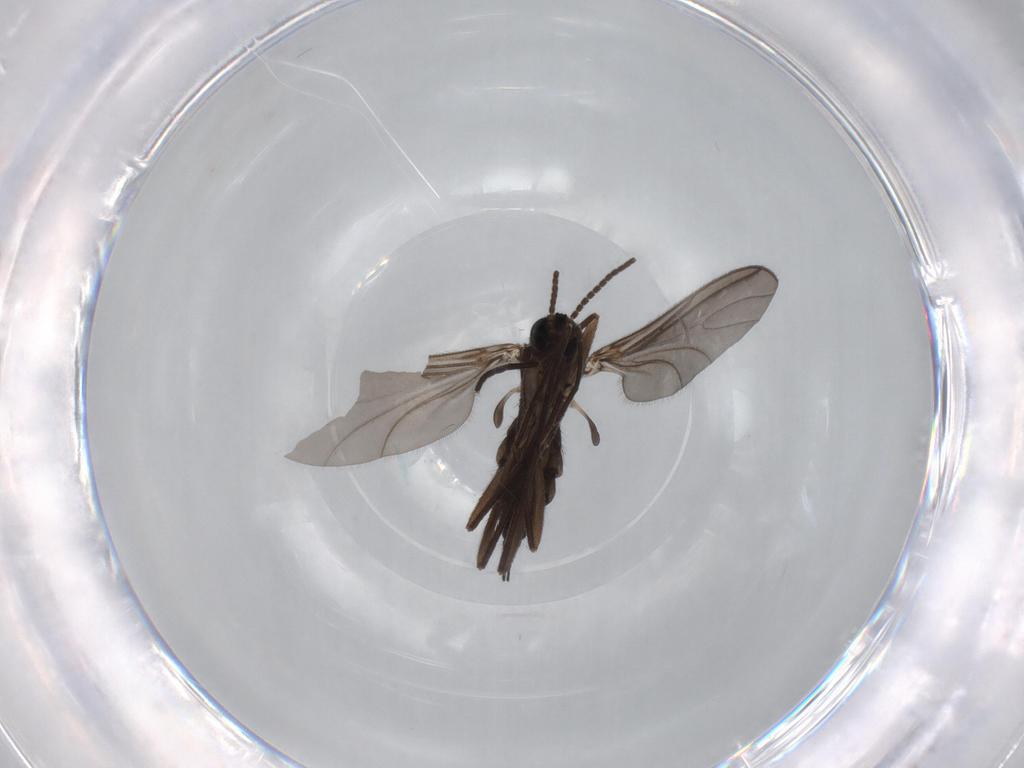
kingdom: Animalia
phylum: Arthropoda
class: Insecta
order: Diptera
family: Sciaridae
